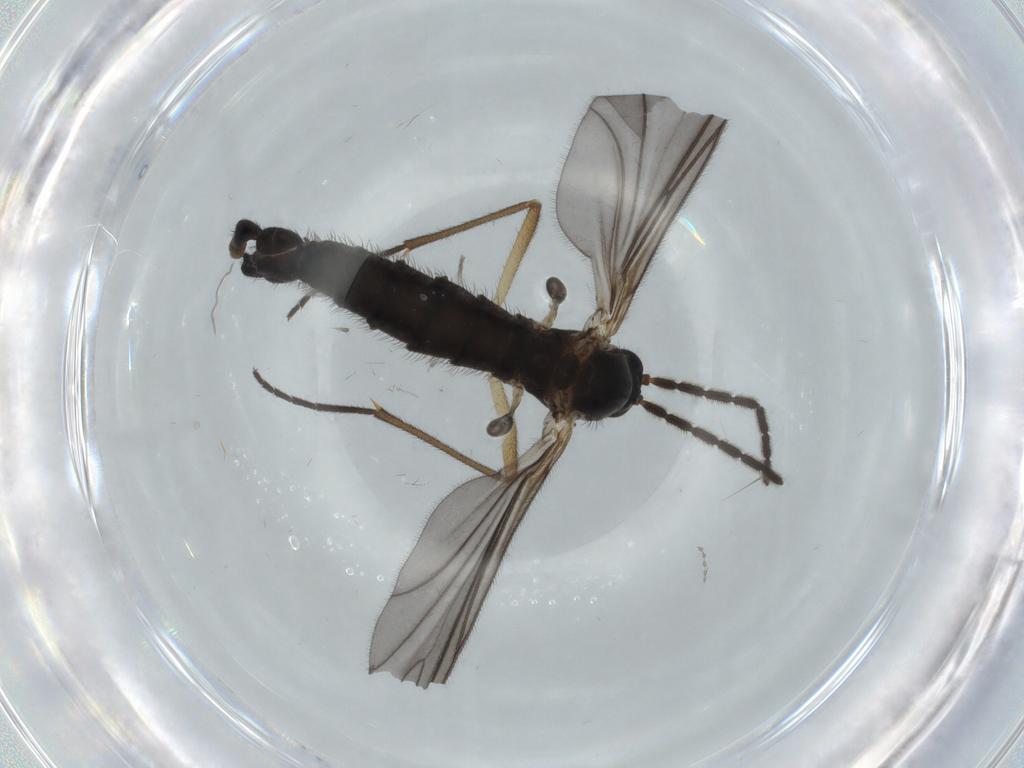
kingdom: Animalia
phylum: Arthropoda
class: Insecta
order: Diptera
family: Sciaridae
